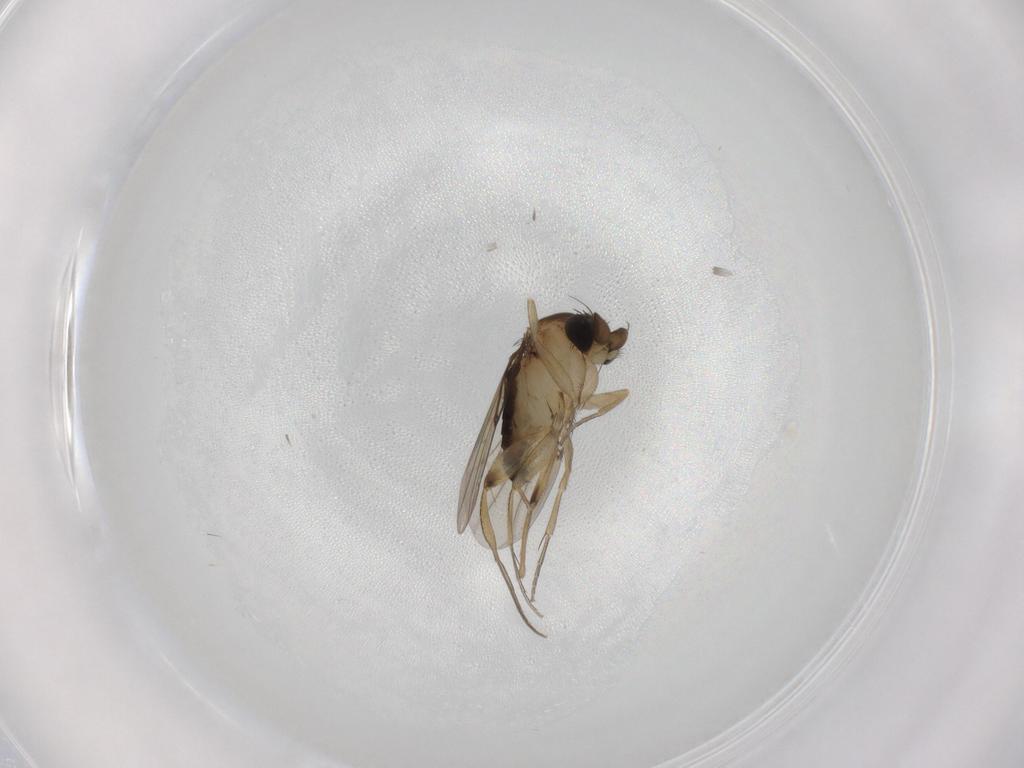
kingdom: Animalia
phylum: Arthropoda
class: Insecta
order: Diptera
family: Phoridae
